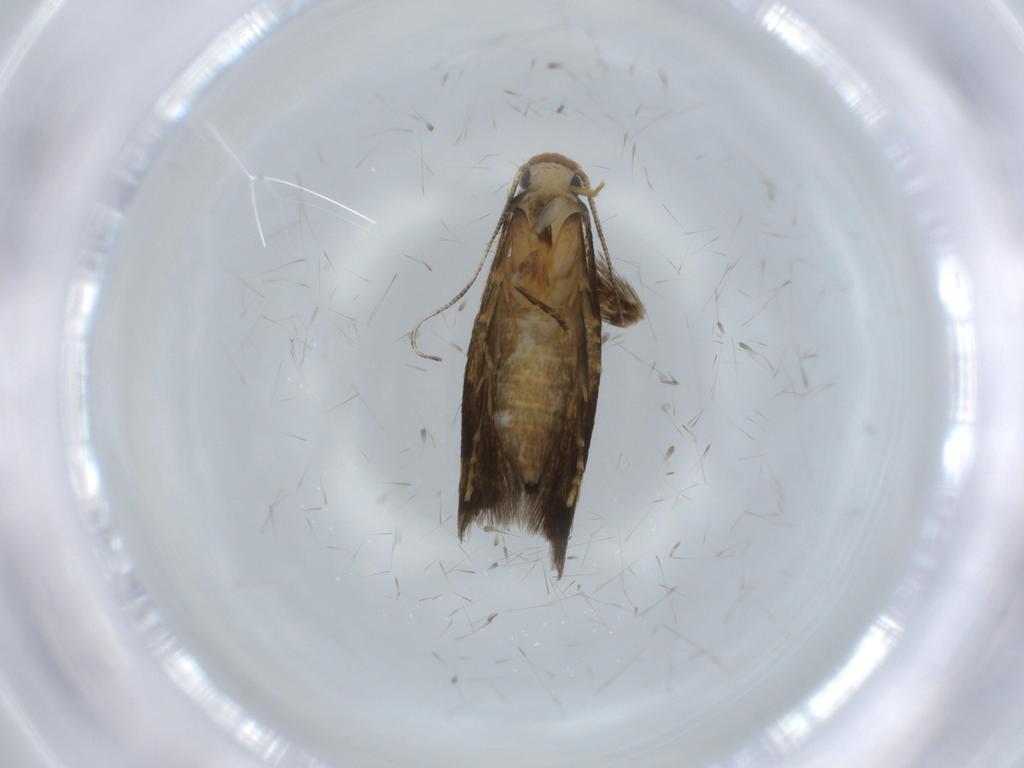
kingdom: Animalia
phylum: Arthropoda
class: Insecta
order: Lepidoptera
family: Tineidae
